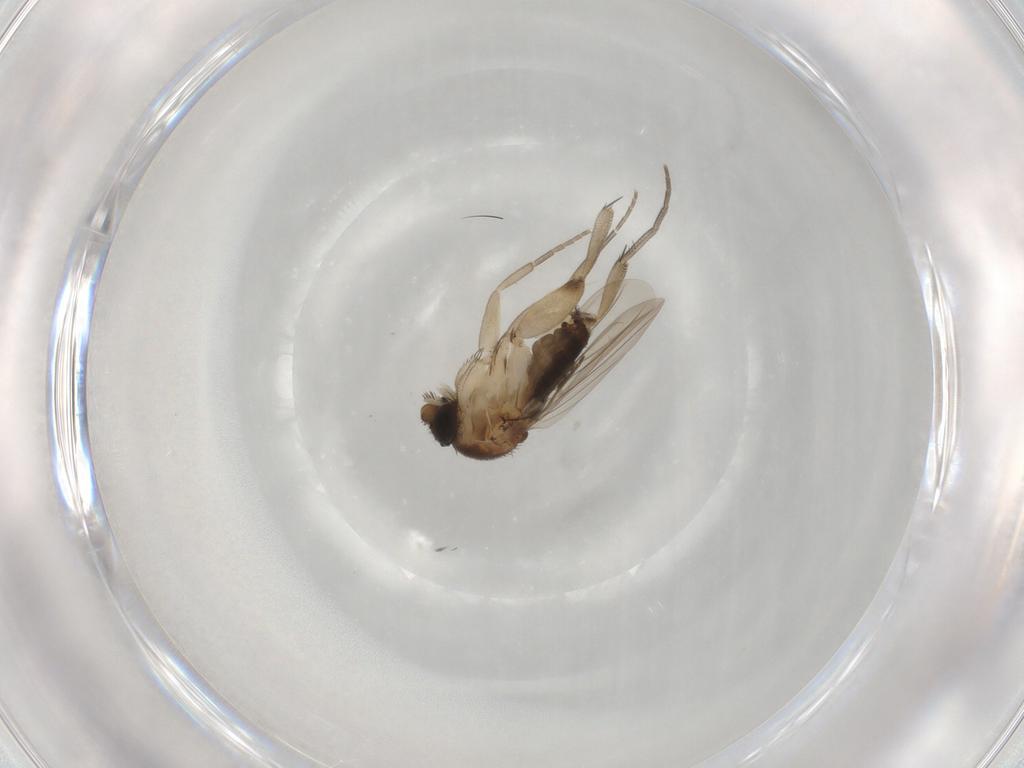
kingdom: Animalia
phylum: Arthropoda
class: Insecta
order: Diptera
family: Phoridae
